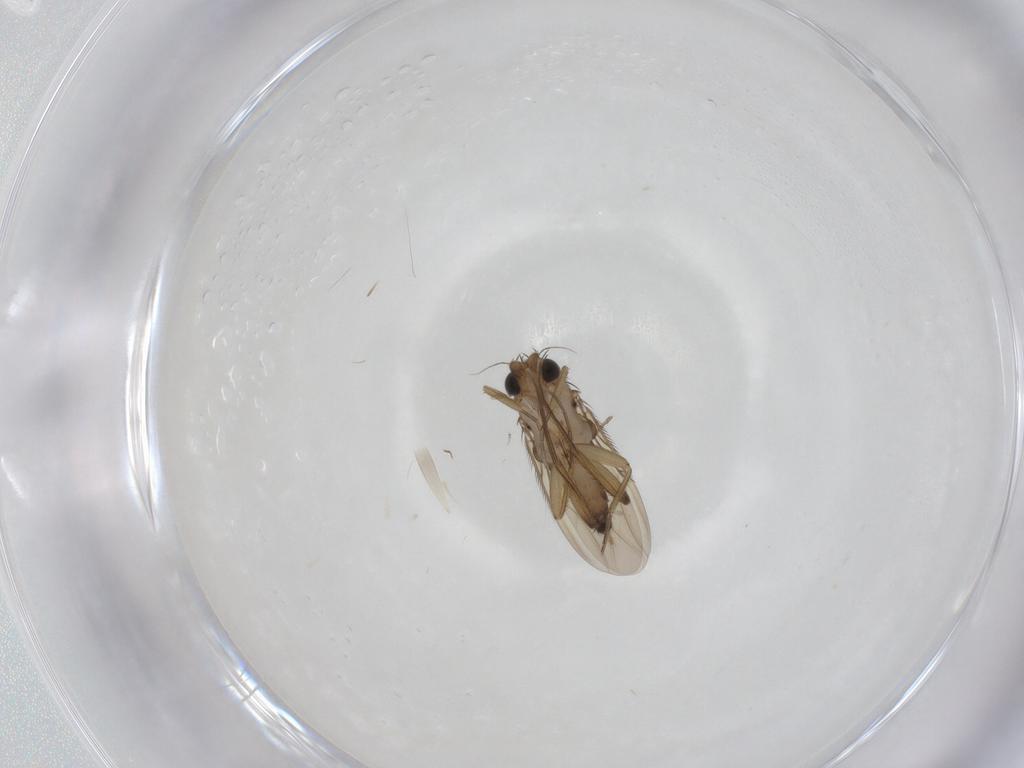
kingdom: Animalia
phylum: Arthropoda
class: Insecta
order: Diptera
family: Phoridae
